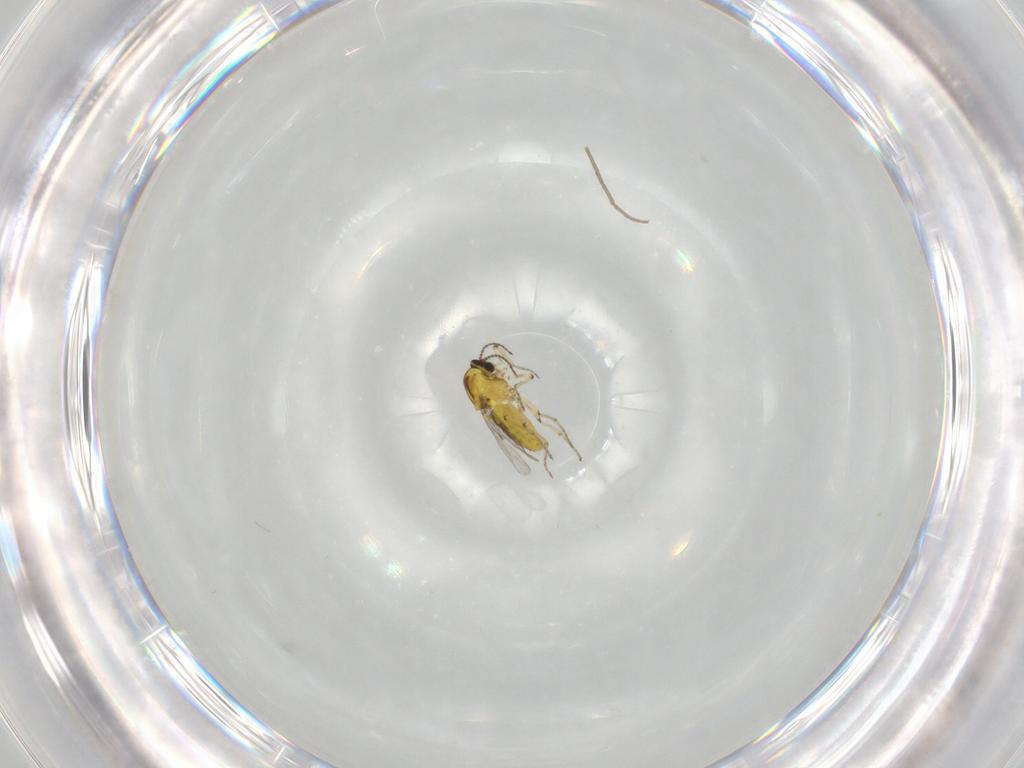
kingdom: Animalia
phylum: Arthropoda
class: Insecta
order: Diptera
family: Ceratopogonidae
